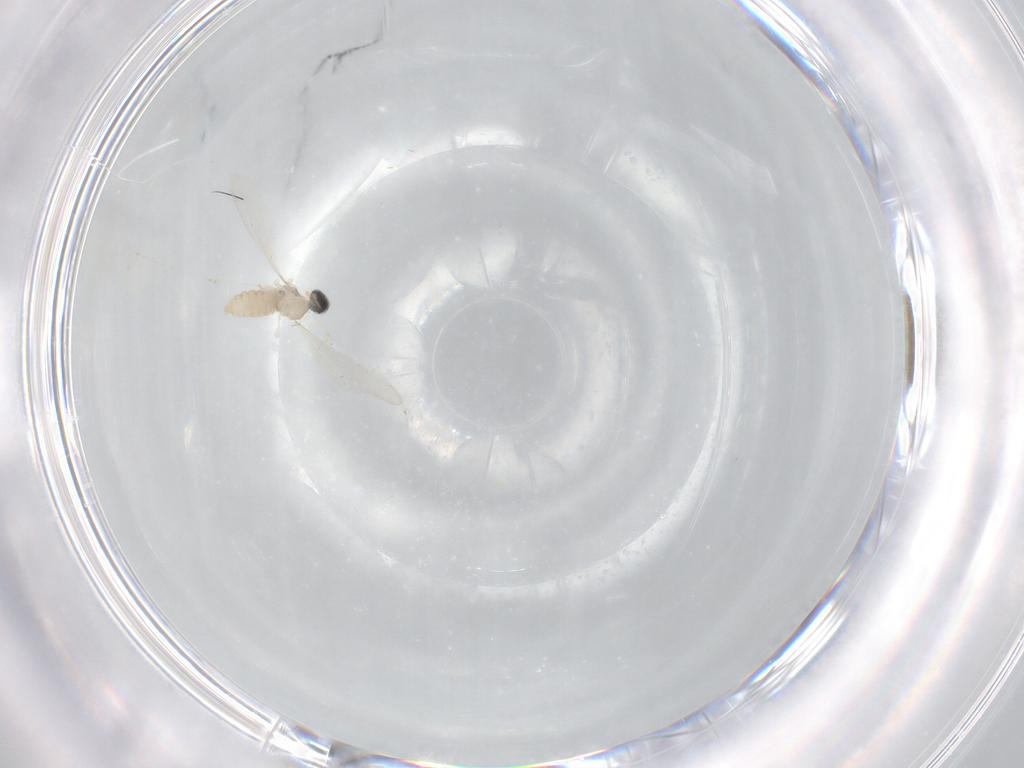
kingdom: Animalia
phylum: Arthropoda
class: Insecta
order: Diptera
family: Cecidomyiidae
